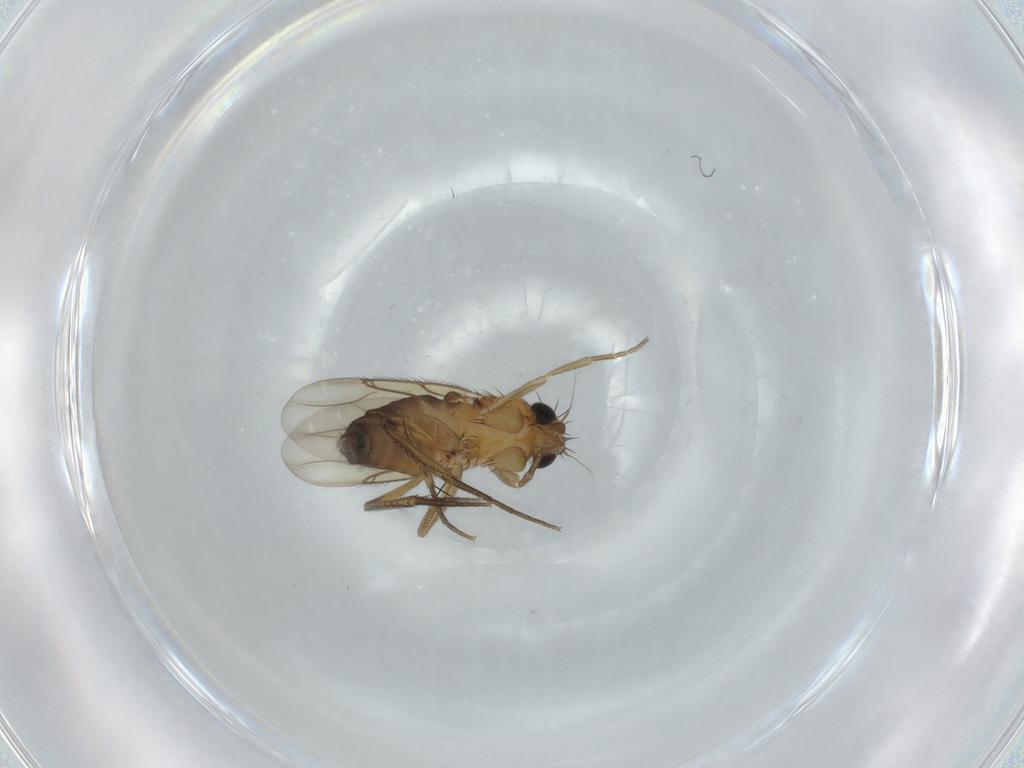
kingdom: Animalia
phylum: Arthropoda
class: Insecta
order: Diptera
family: Phoridae
